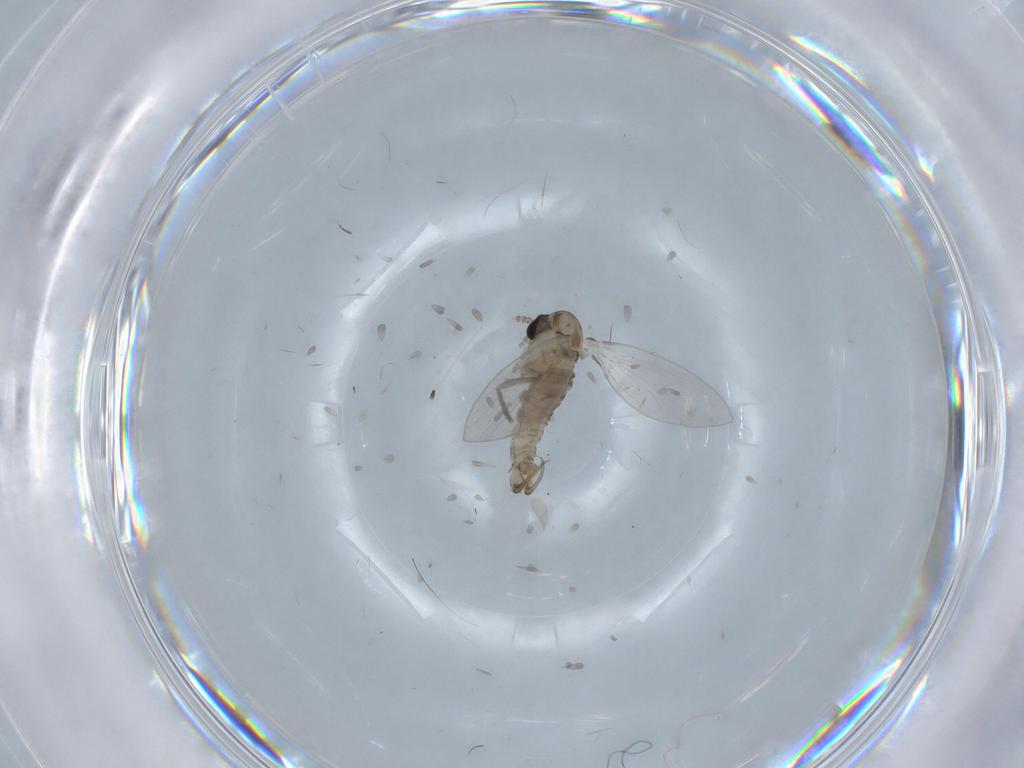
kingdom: Animalia
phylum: Arthropoda
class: Insecta
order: Diptera
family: Psychodidae
